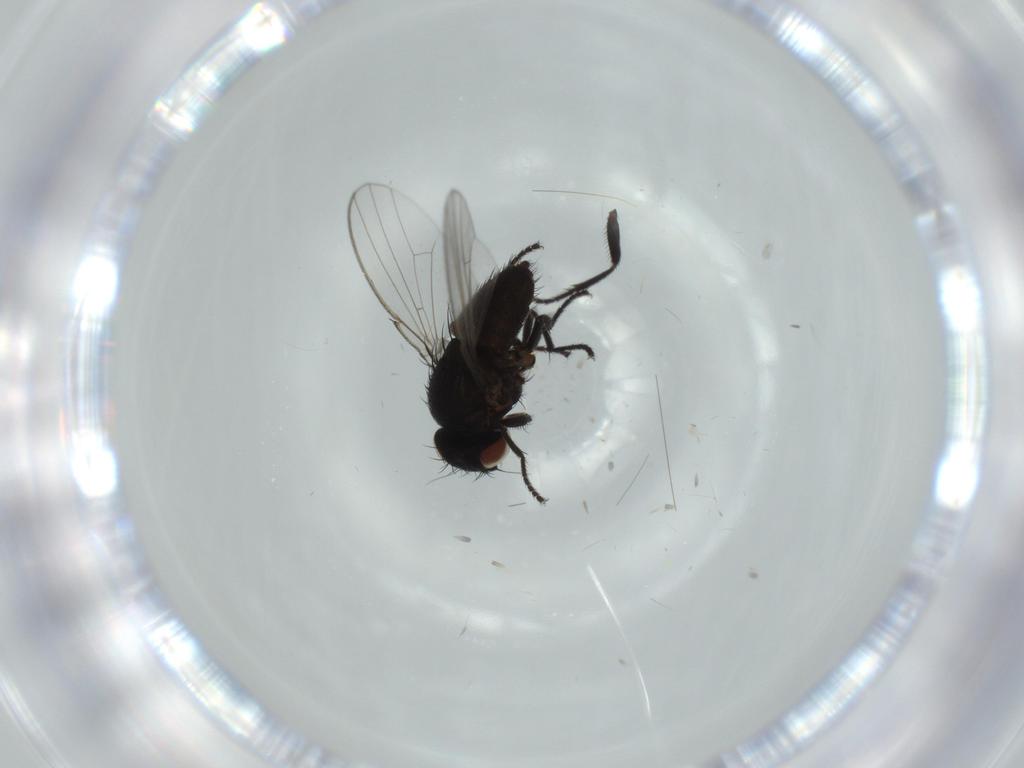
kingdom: Animalia
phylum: Arthropoda
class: Insecta
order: Diptera
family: Milichiidae
